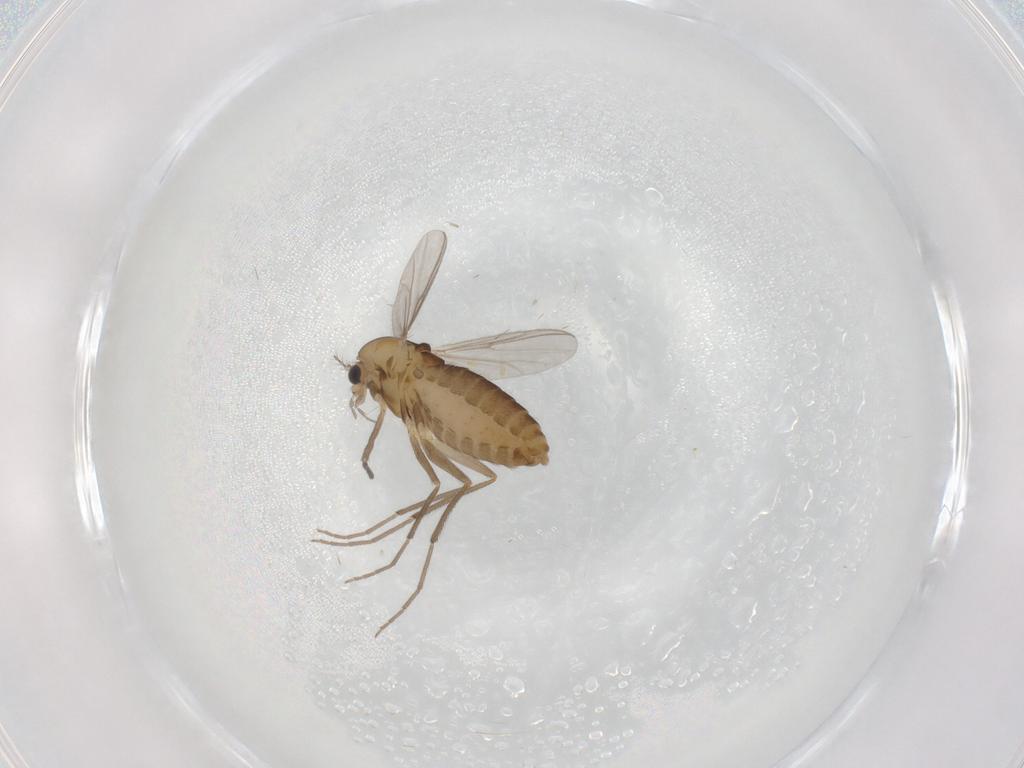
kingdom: Animalia
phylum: Arthropoda
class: Insecta
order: Diptera
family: Chironomidae
